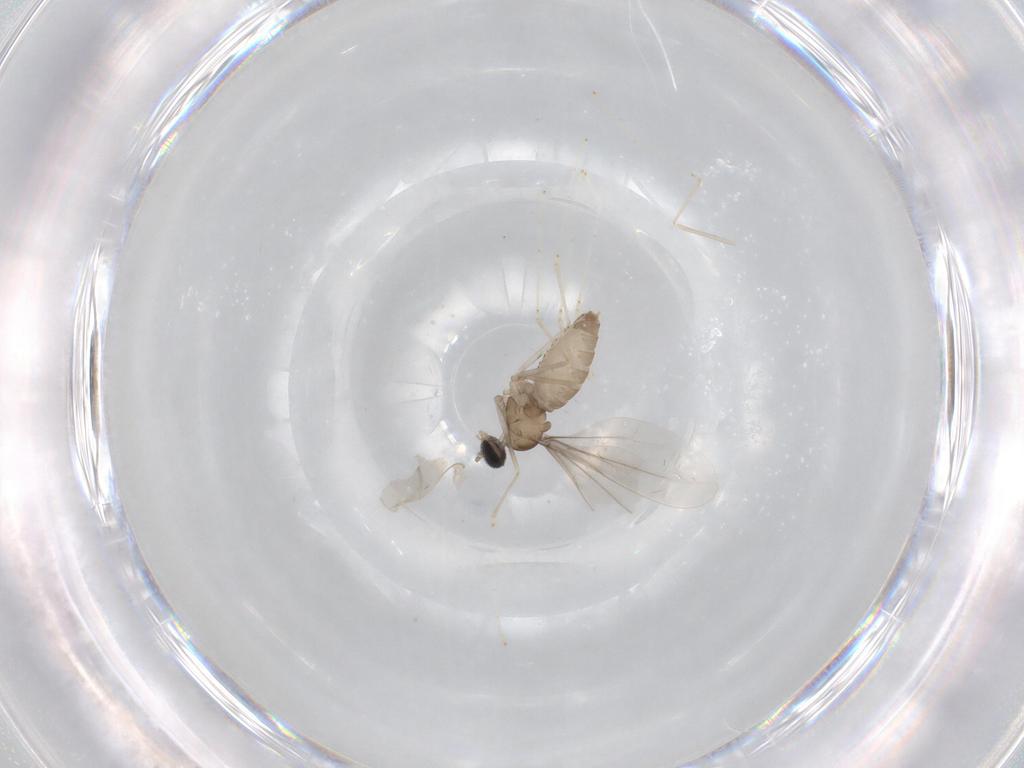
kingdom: Animalia
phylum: Arthropoda
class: Insecta
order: Diptera
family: Cecidomyiidae
